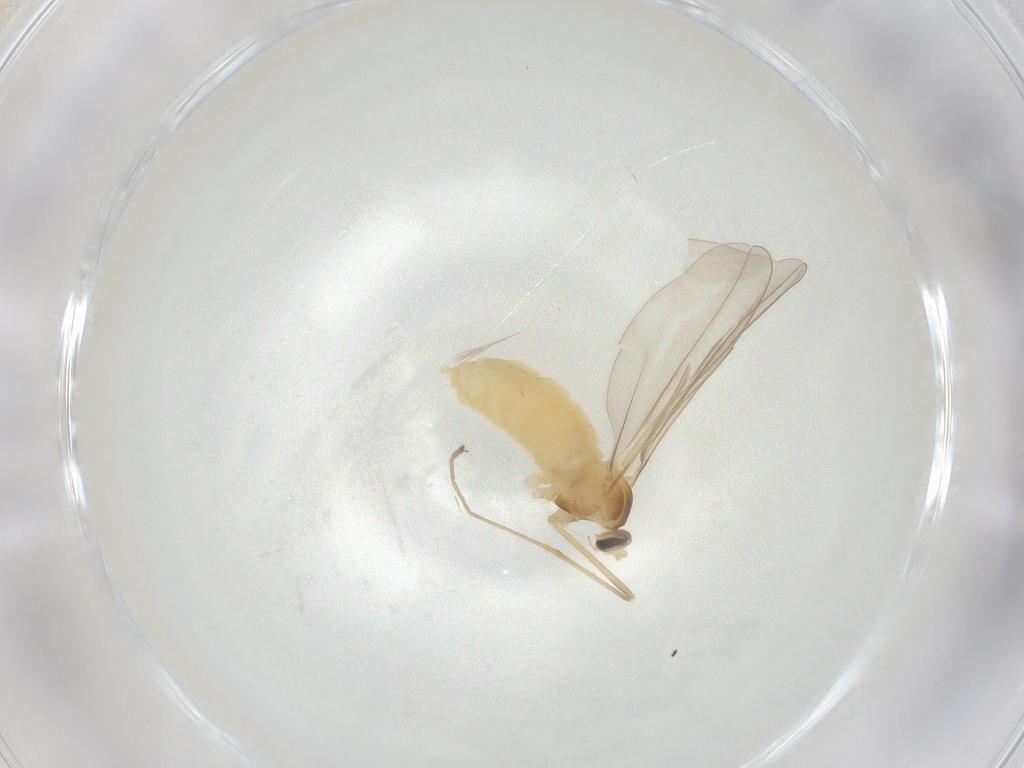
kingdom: Animalia
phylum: Arthropoda
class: Insecta
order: Diptera
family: Cecidomyiidae
